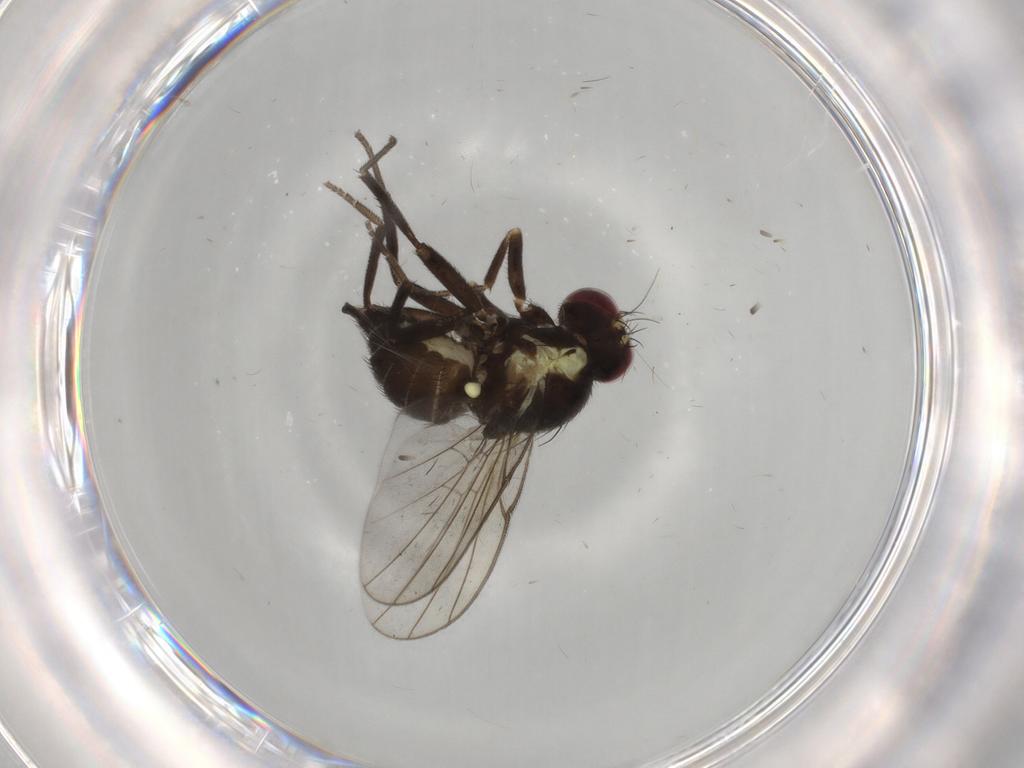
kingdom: Animalia
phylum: Arthropoda
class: Insecta
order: Diptera
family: Agromyzidae
